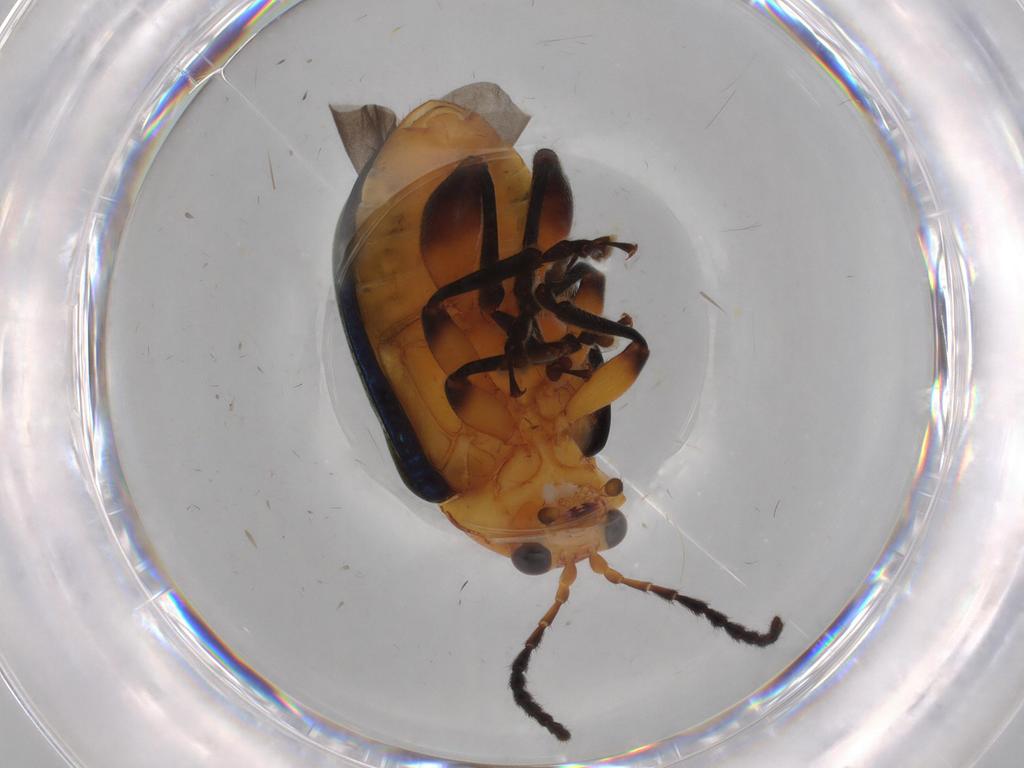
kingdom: Animalia
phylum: Arthropoda
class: Insecta
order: Coleoptera
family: Chrysomelidae
